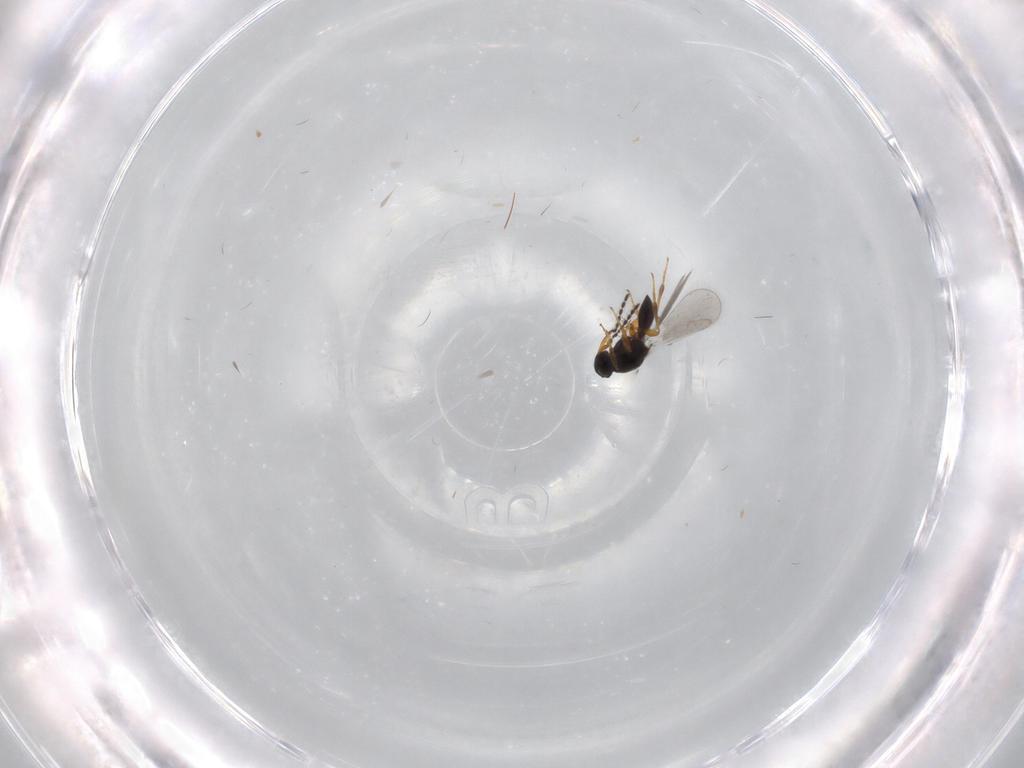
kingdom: Animalia
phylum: Arthropoda
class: Insecta
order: Hymenoptera
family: Platygastridae
